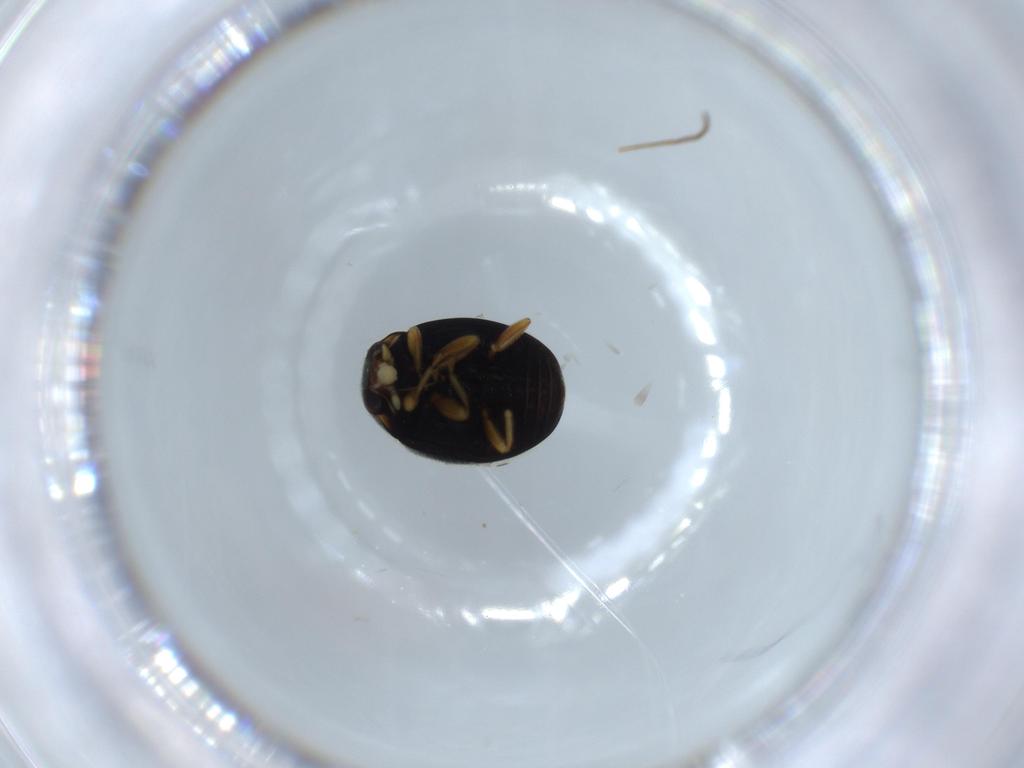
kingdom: Animalia
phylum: Arthropoda
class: Insecta
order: Coleoptera
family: Coccinellidae
